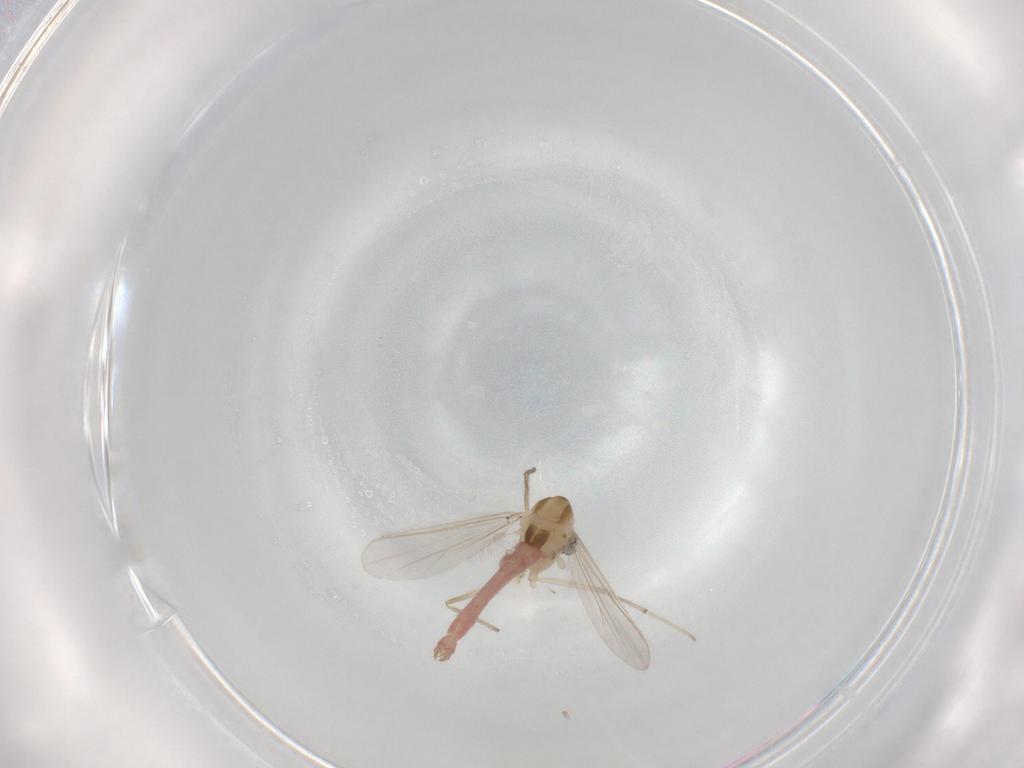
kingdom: Animalia
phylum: Arthropoda
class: Insecta
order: Diptera
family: Chironomidae
